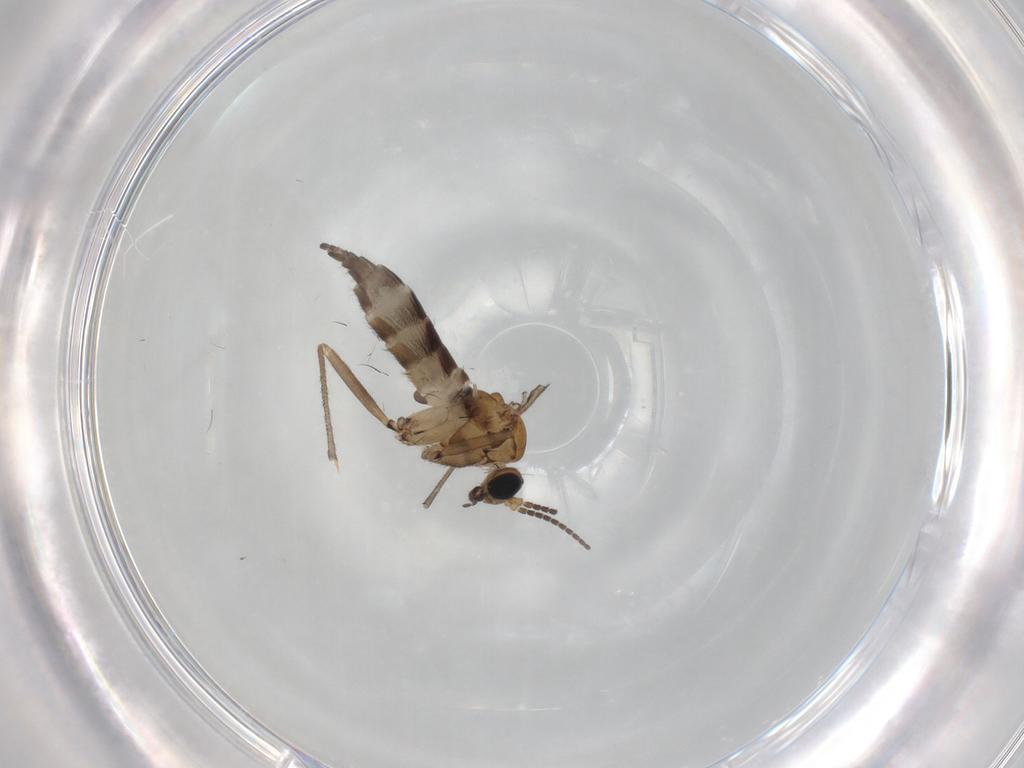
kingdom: Animalia
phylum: Arthropoda
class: Insecta
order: Diptera
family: Sciaridae
